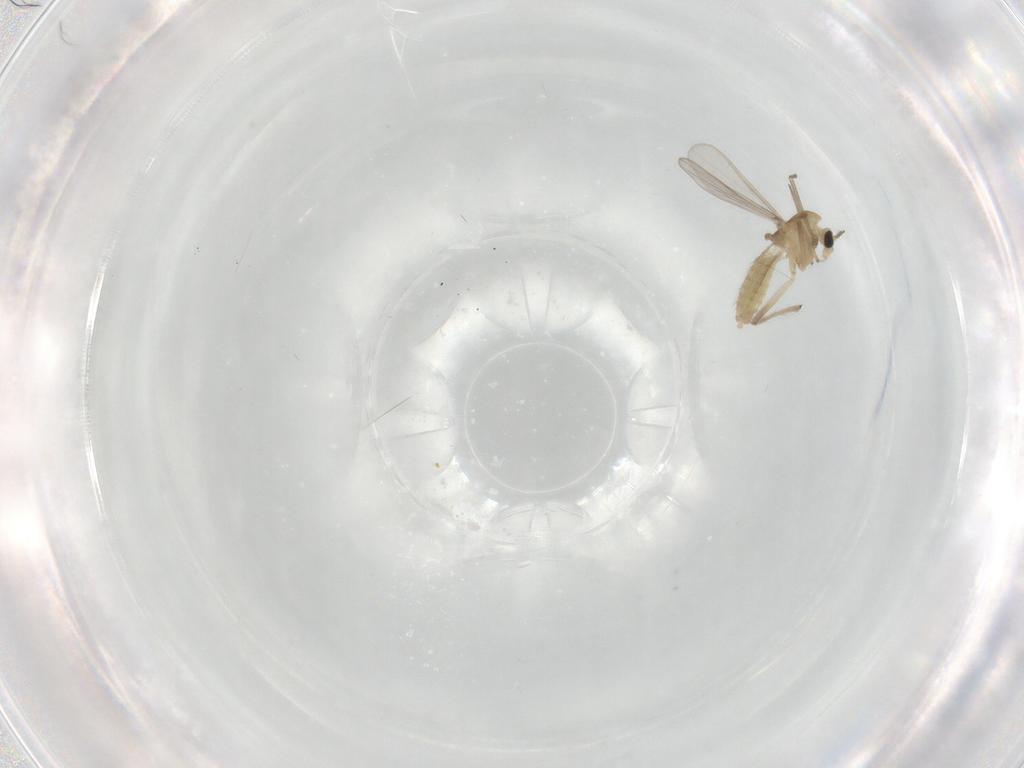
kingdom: Animalia
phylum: Arthropoda
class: Insecta
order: Diptera
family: Chironomidae
